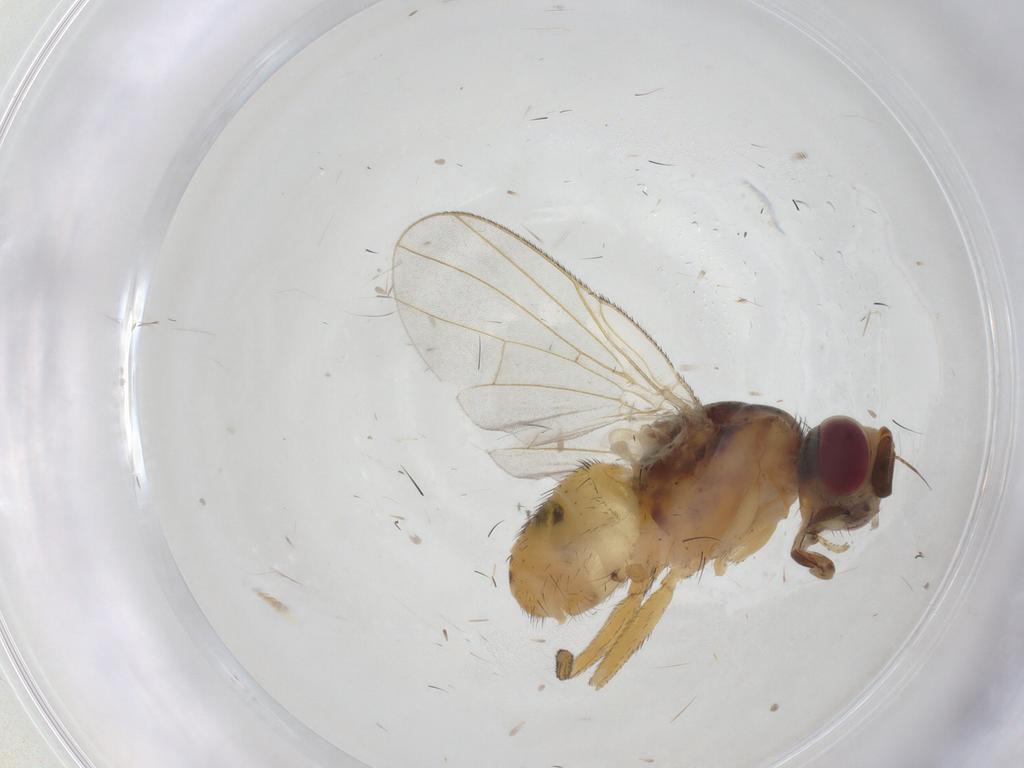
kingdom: Animalia
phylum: Arthropoda
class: Insecta
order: Diptera
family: Muscidae
